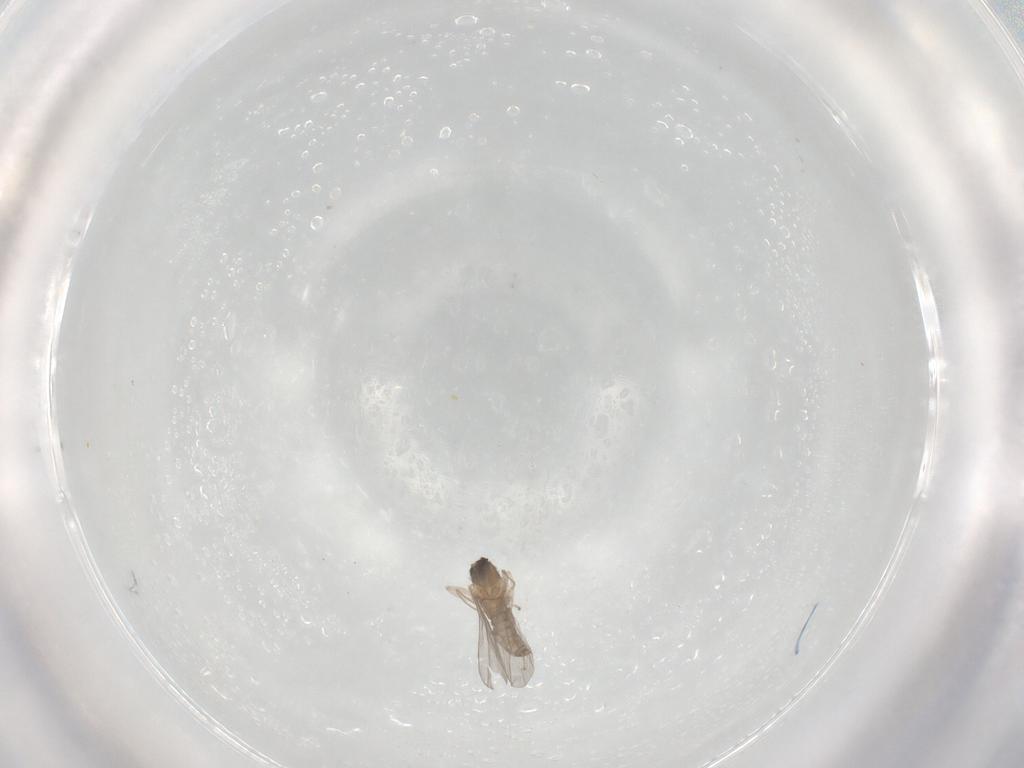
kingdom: Animalia
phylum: Arthropoda
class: Insecta
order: Diptera
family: Cecidomyiidae
